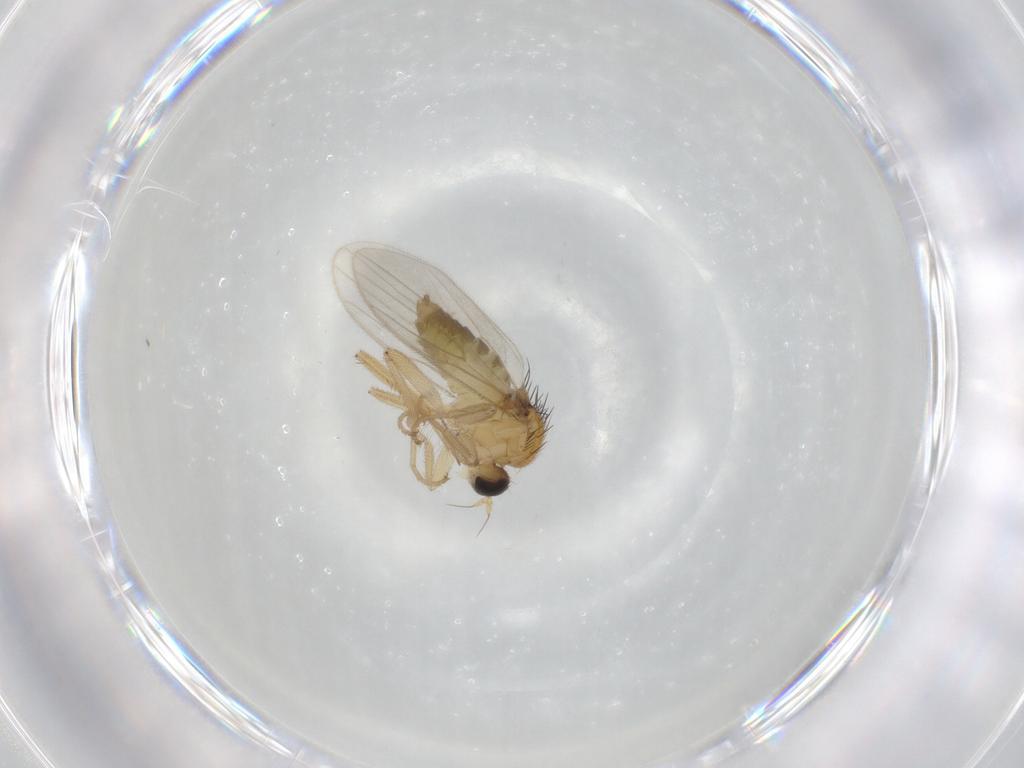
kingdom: Animalia
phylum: Arthropoda
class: Insecta
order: Diptera
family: Hybotidae
